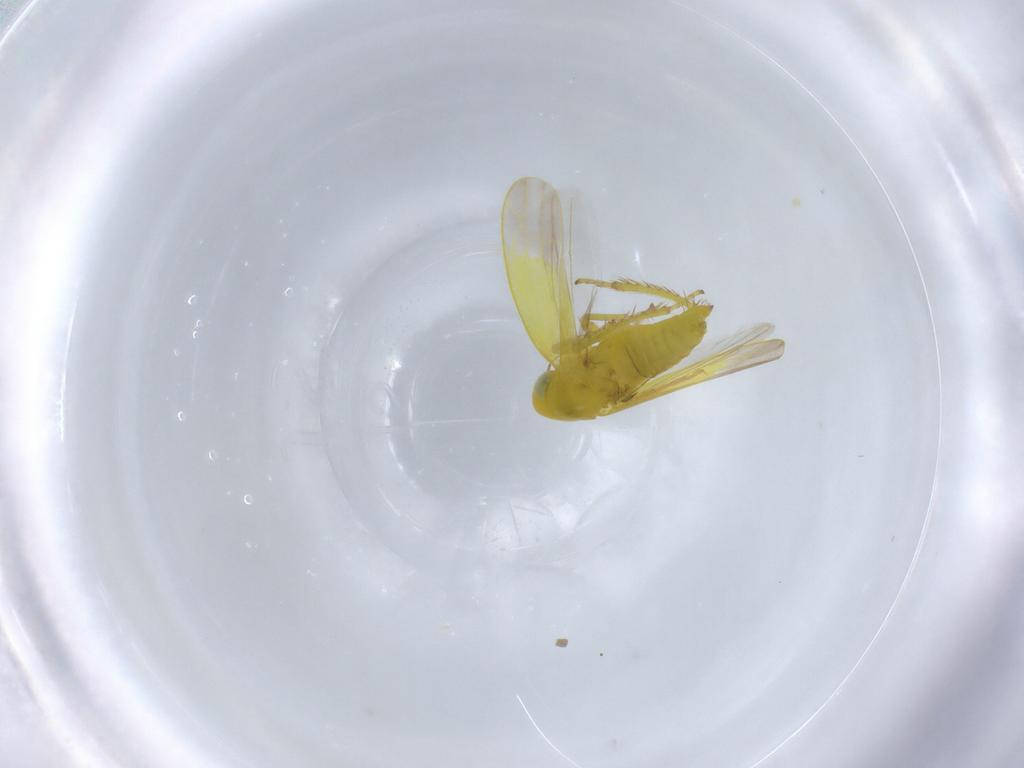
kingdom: Animalia
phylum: Arthropoda
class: Insecta
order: Hemiptera
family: Cicadellidae
